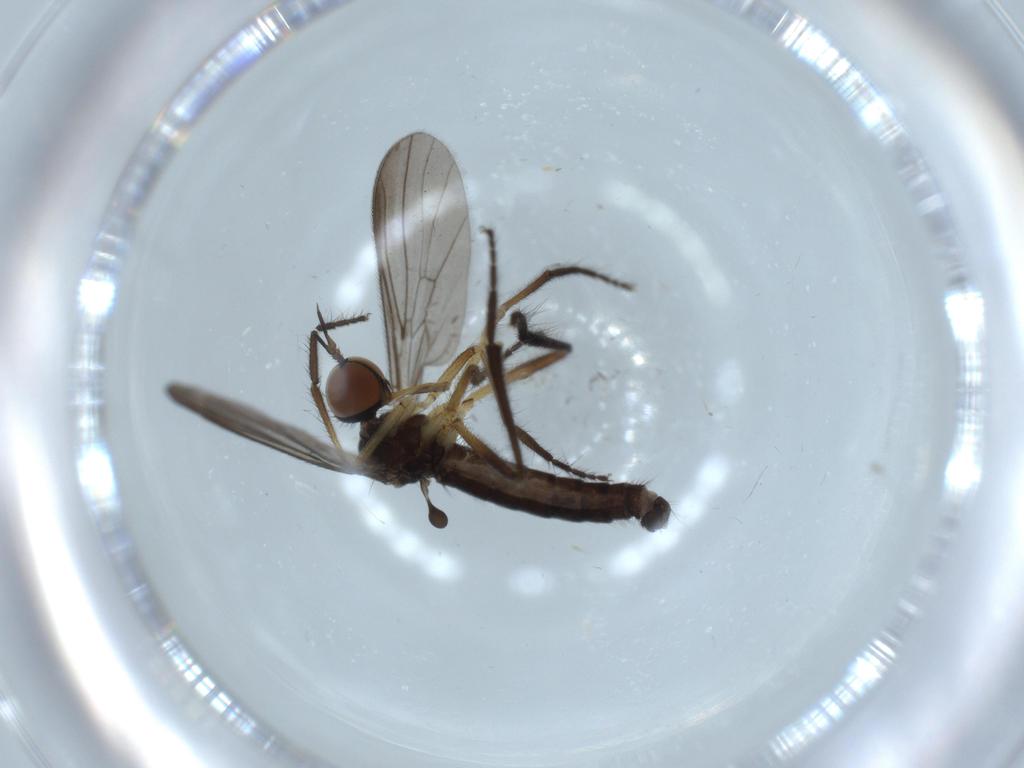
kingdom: Animalia
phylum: Arthropoda
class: Insecta
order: Diptera
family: Empididae
